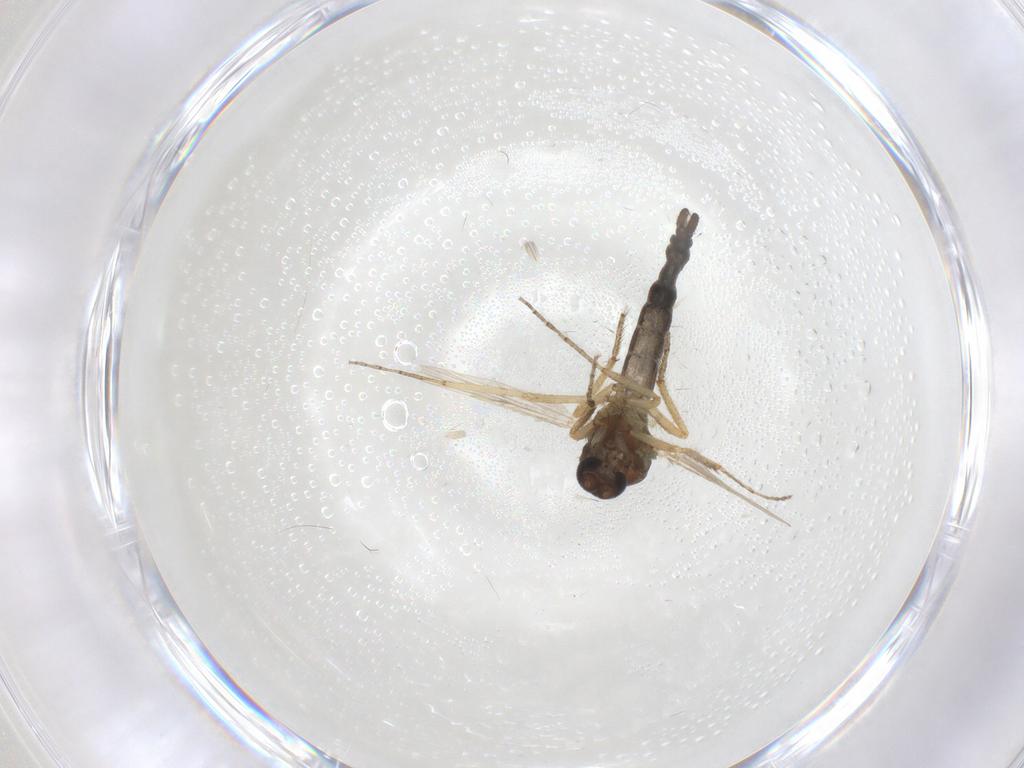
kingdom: Animalia
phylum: Arthropoda
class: Insecta
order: Diptera
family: Ceratopogonidae
